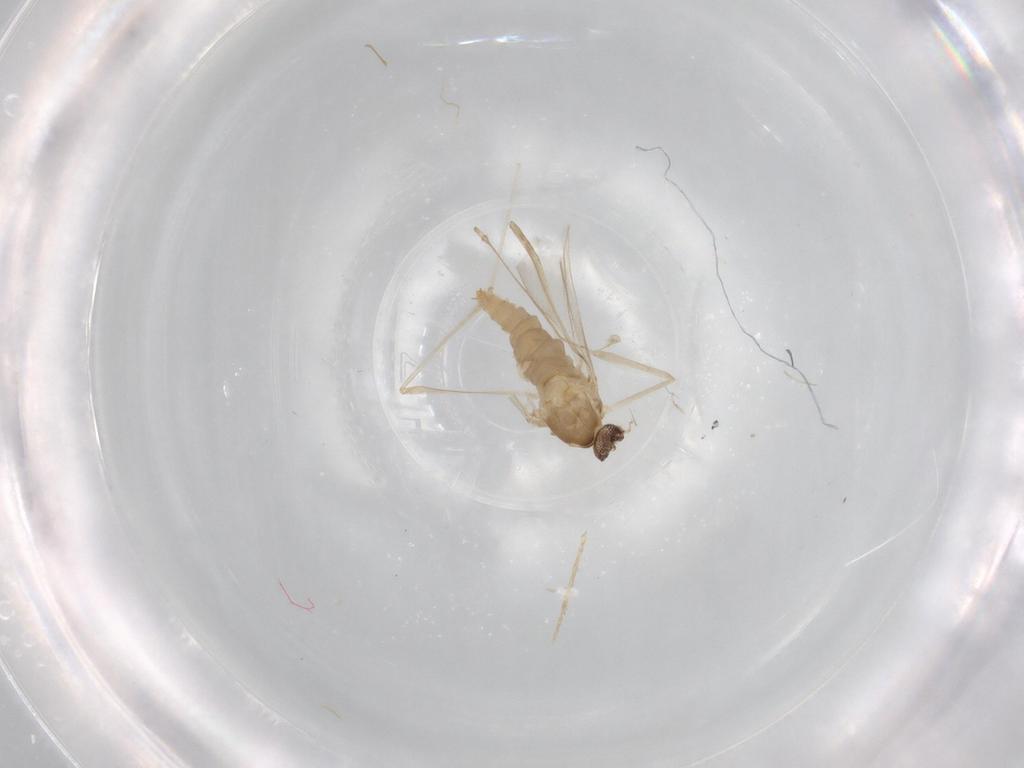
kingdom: Animalia
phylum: Arthropoda
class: Insecta
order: Diptera
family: Cecidomyiidae
